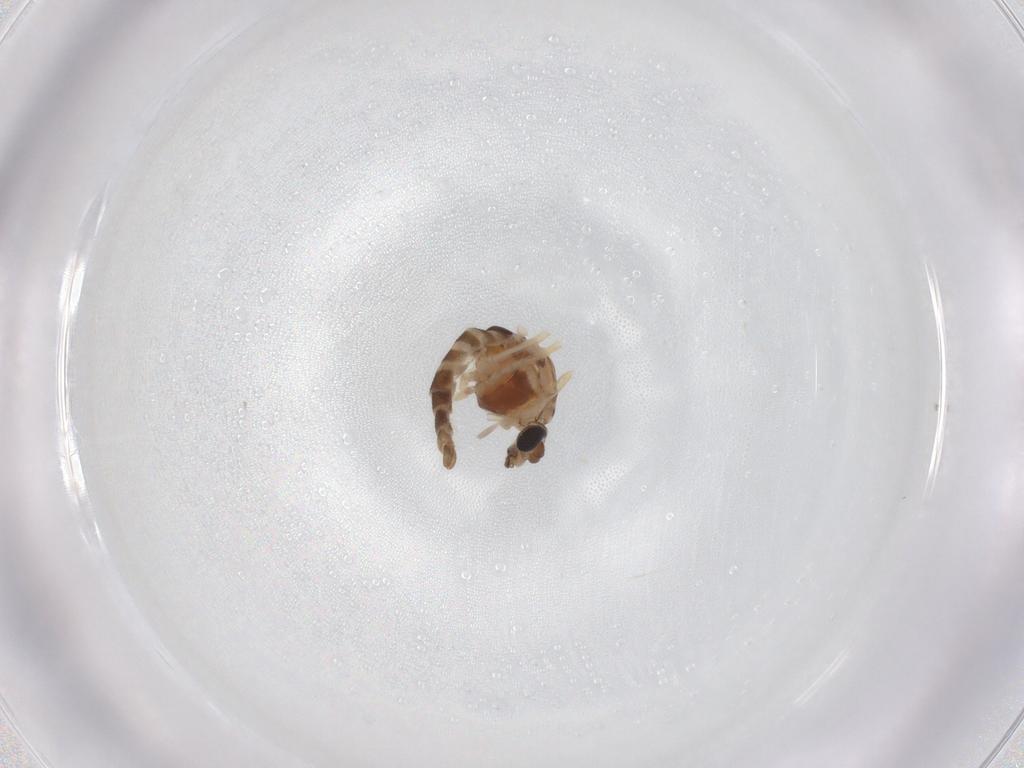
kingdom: Animalia
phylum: Arthropoda
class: Insecta
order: Diptera
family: Chironomidae
